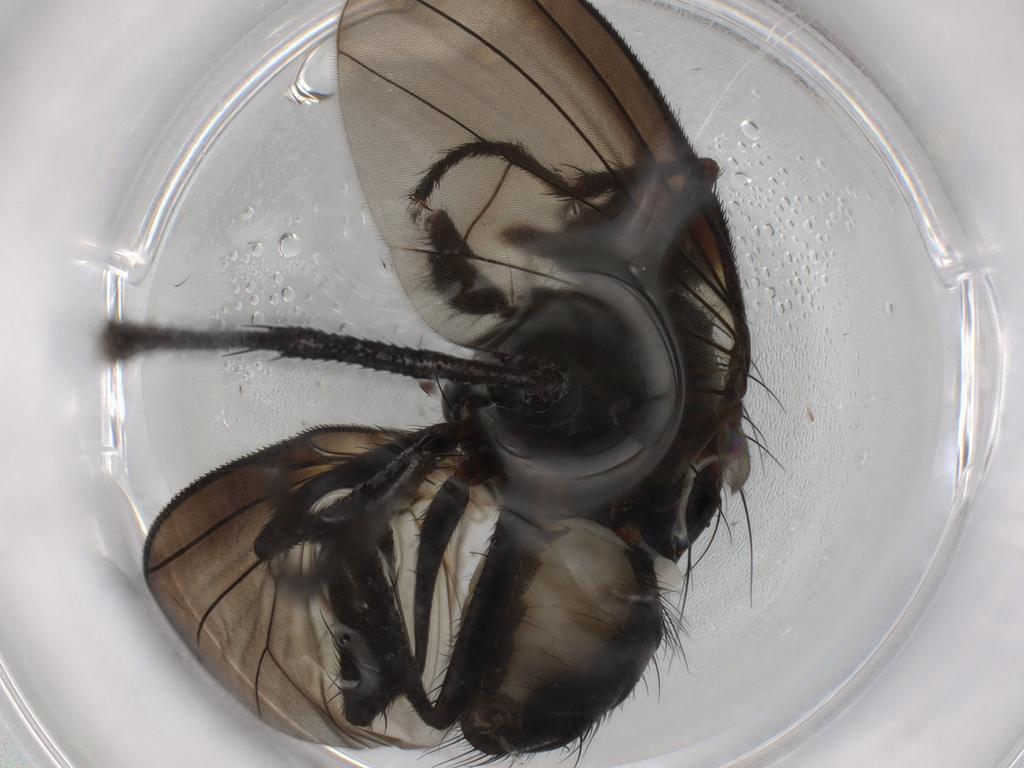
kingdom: Animalia
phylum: Arthropoda
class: Insecta
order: Diptera
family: Anthomyiidae
